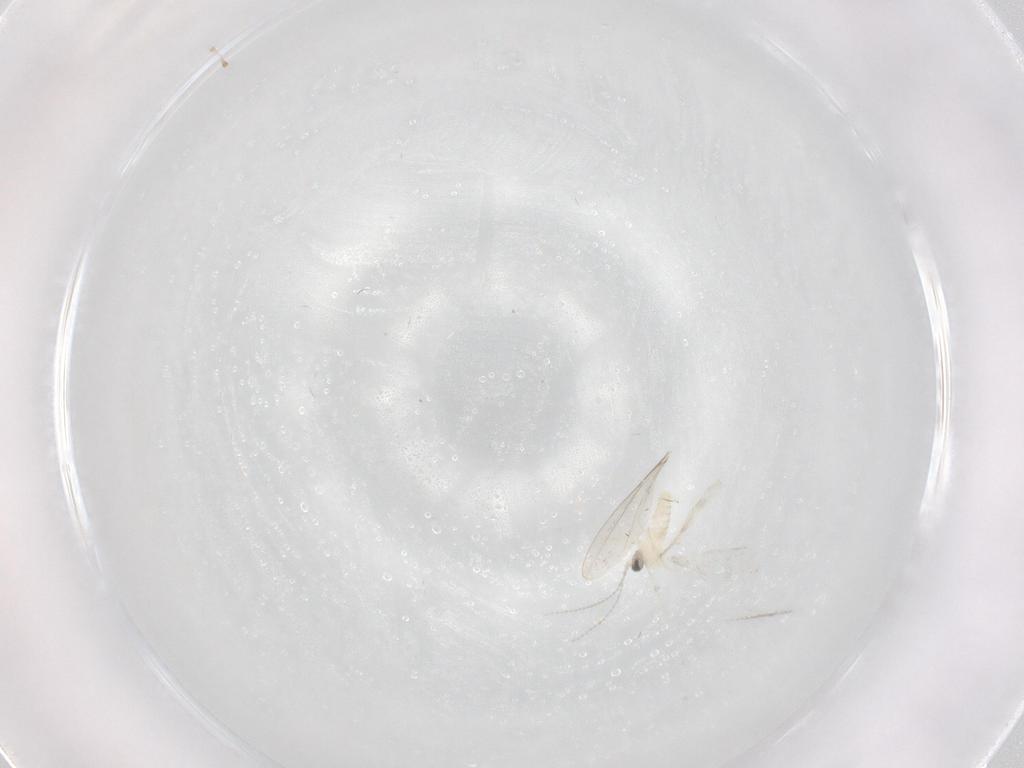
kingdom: Animalia
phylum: Arthropoda
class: Insecta
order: Diptera
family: Cecidomyiidae
